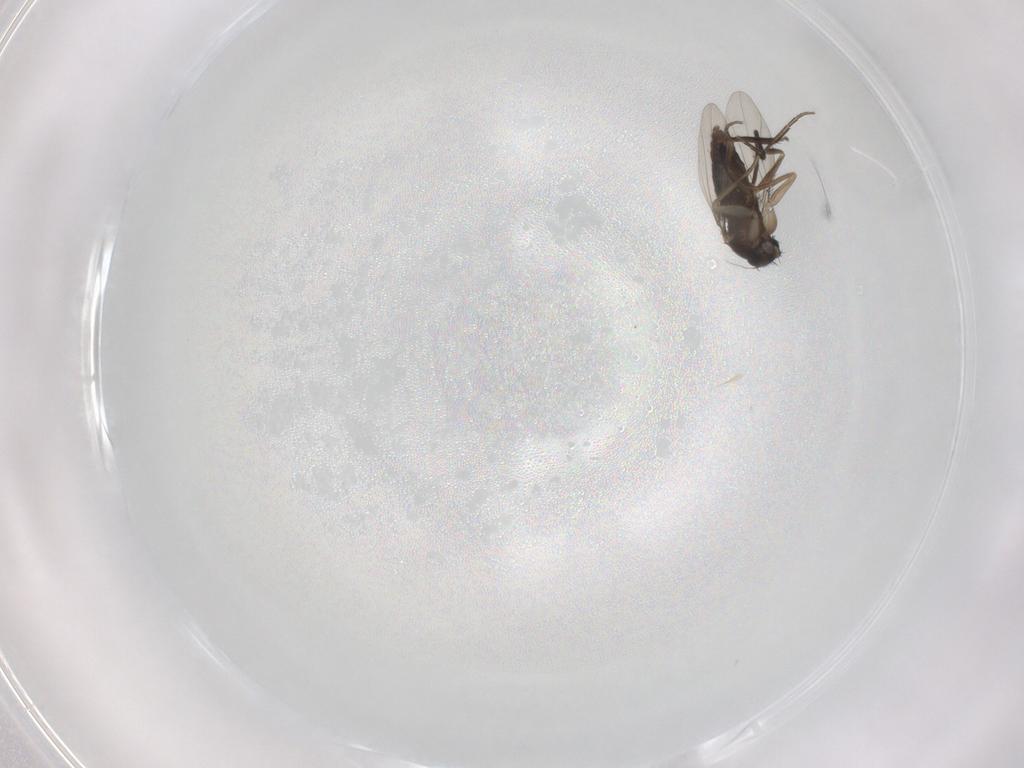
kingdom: Animalia
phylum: Arthropoda
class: Insecta
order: Diptera
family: Phoridae
